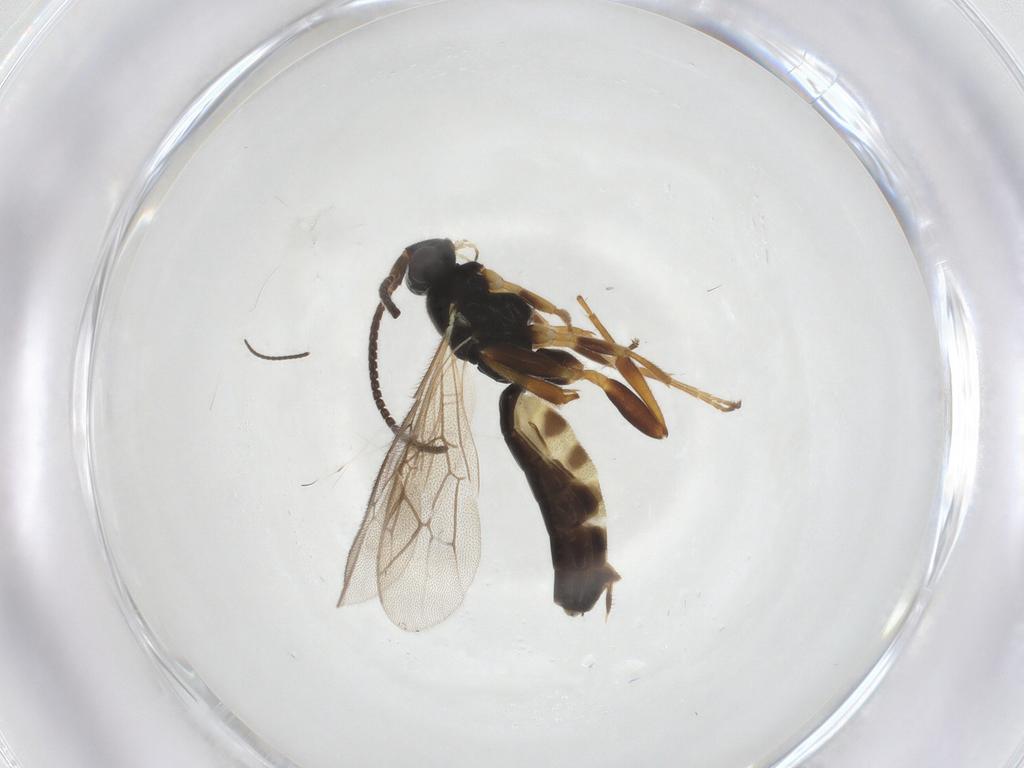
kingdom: Animalia
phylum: Arthropoda
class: Insecta
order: Hymenoptera
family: Ichneumonidae
